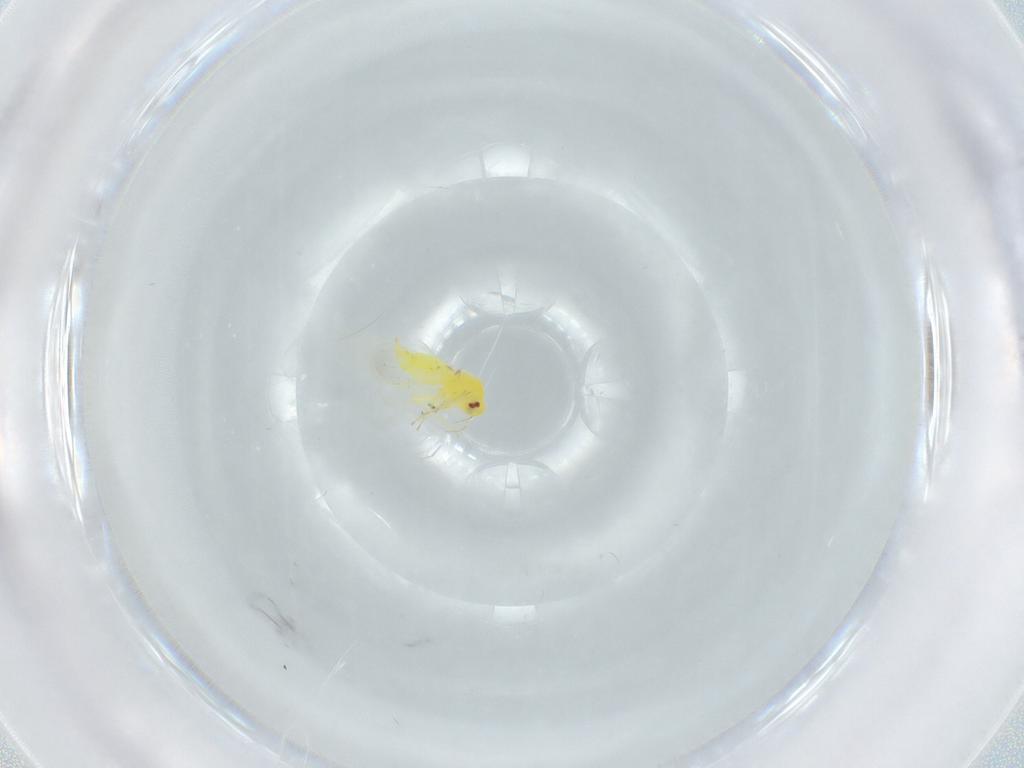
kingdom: Animalia
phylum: Arthropoda
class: Insecta
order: Hemiptera
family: Aleyrodidae
